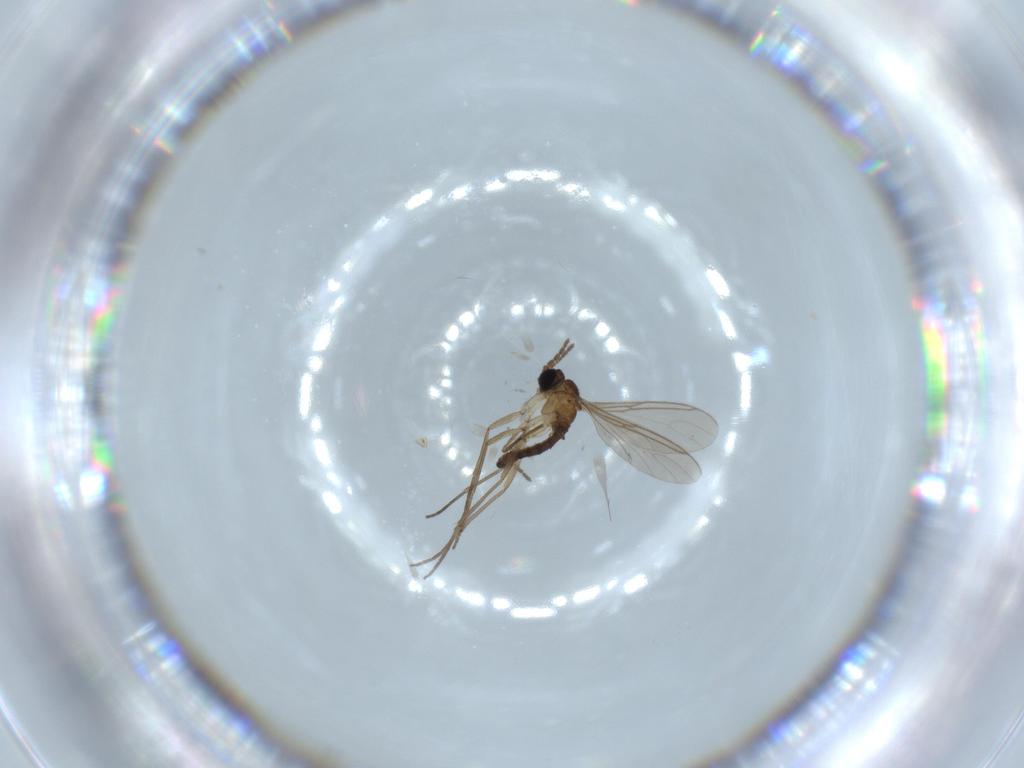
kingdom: Animalia
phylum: Arthropoda
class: Insecta
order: Diptera
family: Sciaridae
